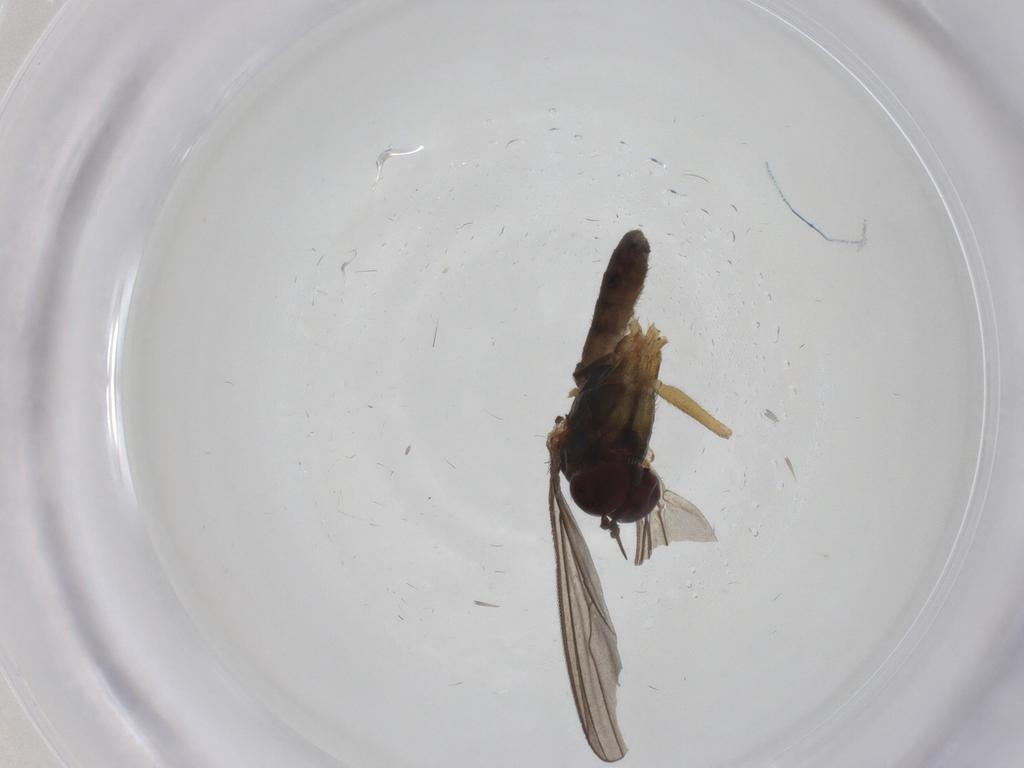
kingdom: Animalia
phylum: Arthropoda
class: Insecta
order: Diptera
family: Dolichopodidae
